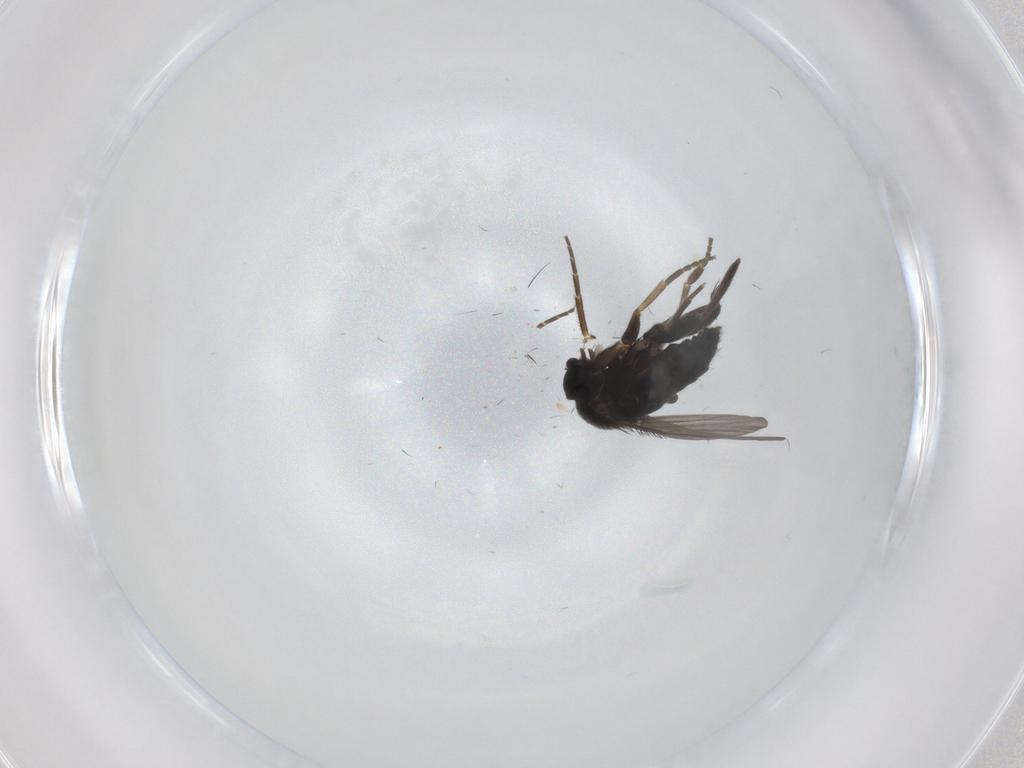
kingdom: Animalia
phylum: Arthropoda
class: Insecta
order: Diptera
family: Phoridae
